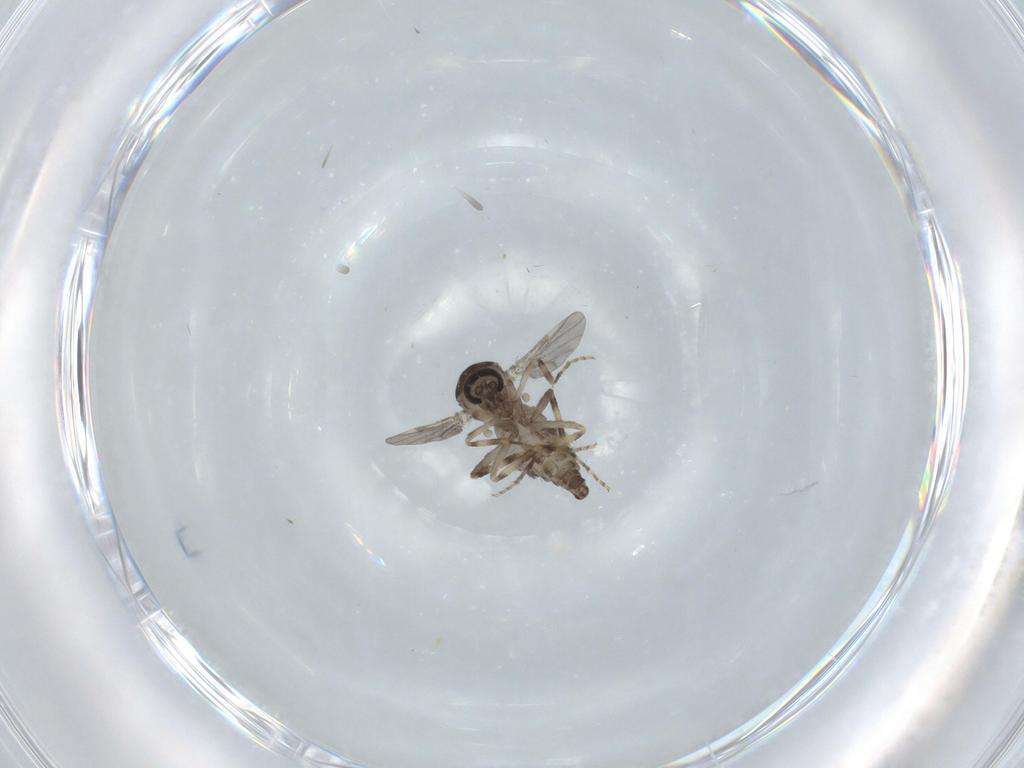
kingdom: Animalia
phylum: Arthropoda
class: Insecta
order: Diptera
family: Ceratopogonidae
